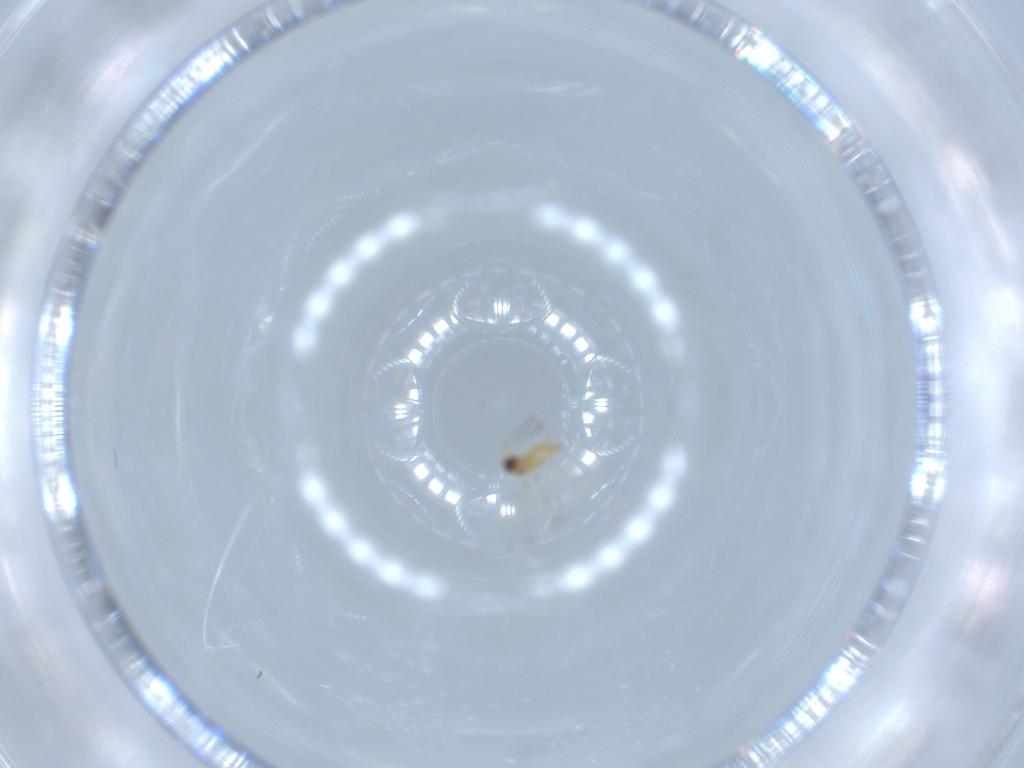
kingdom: Animalia
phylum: Arthropoda
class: Insecta
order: Hymenoptera
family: Mymaridae
